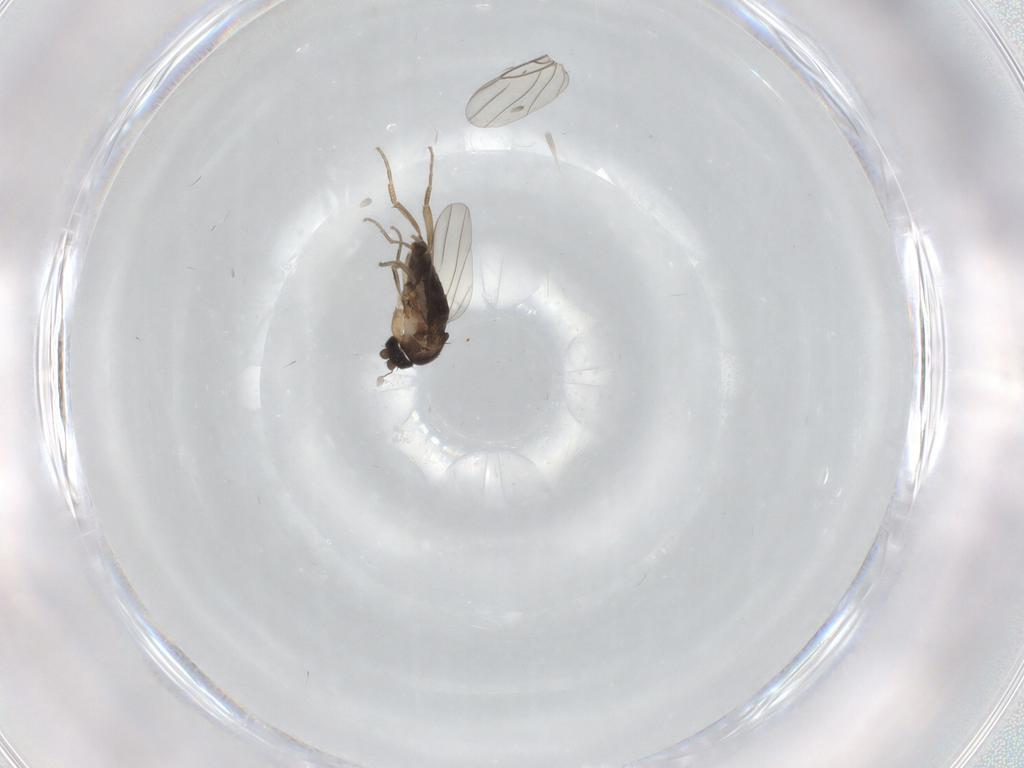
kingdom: Animalia
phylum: Arthropoda
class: Insecta
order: Diptera
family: Phoridae
